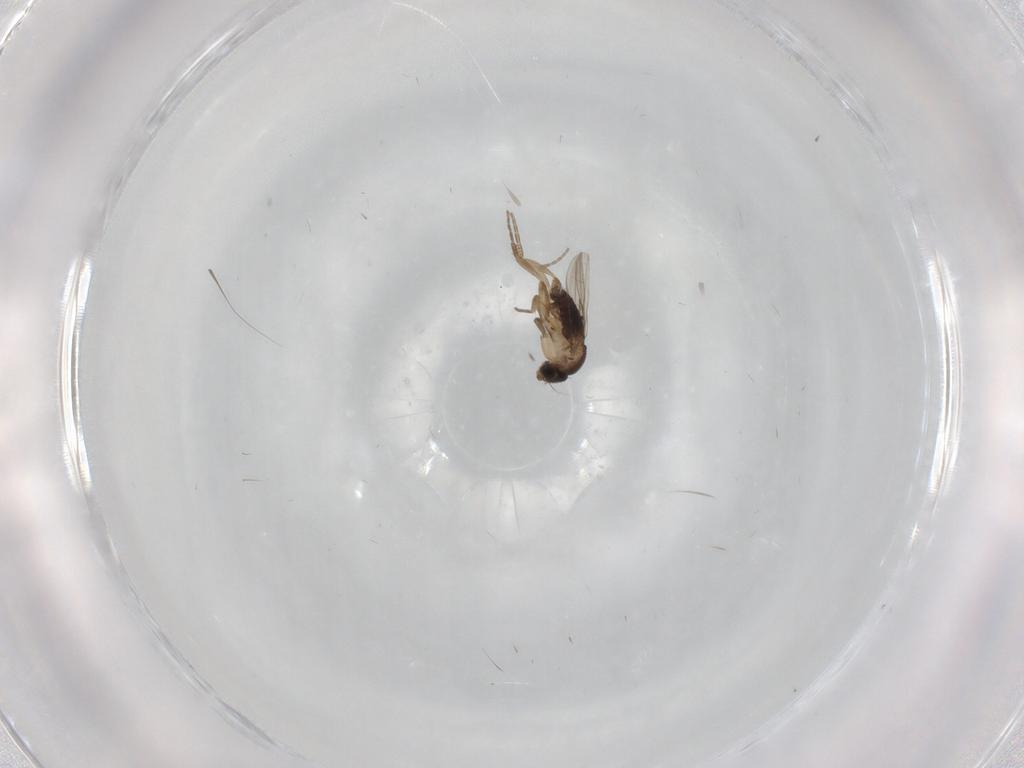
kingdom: Animalia
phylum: Arthropoda
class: Insecta
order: Diptera
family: Phoridae
